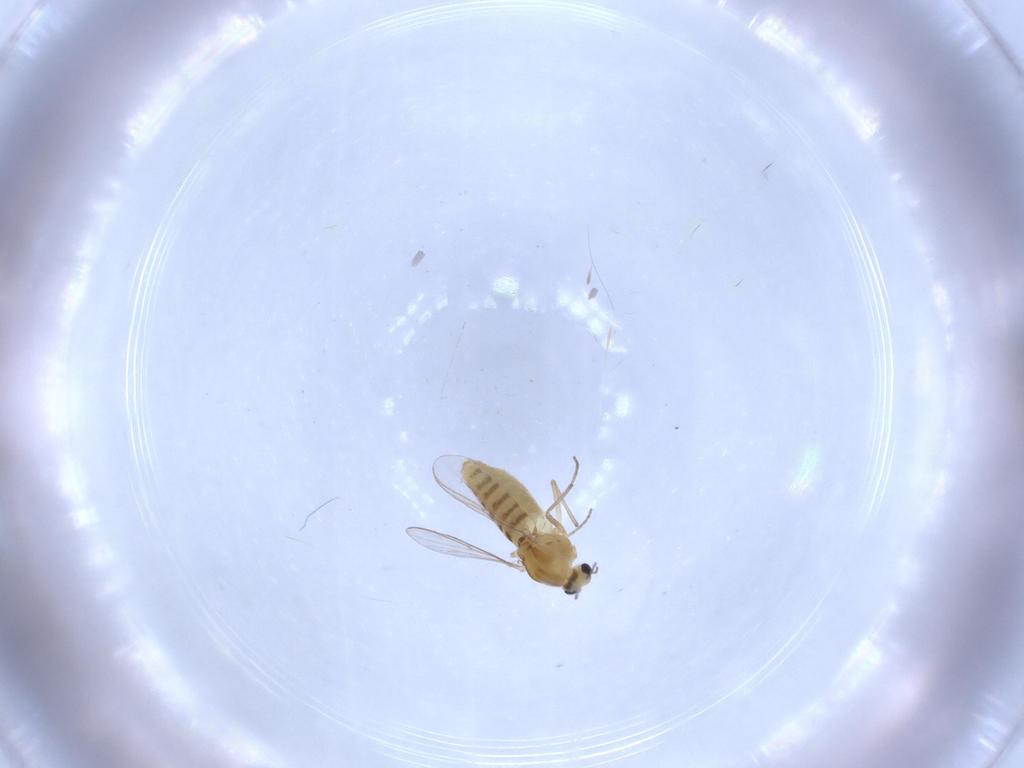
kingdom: Animalia
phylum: Arthropoda
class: Insecta
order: Diptera
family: Chironomidae
